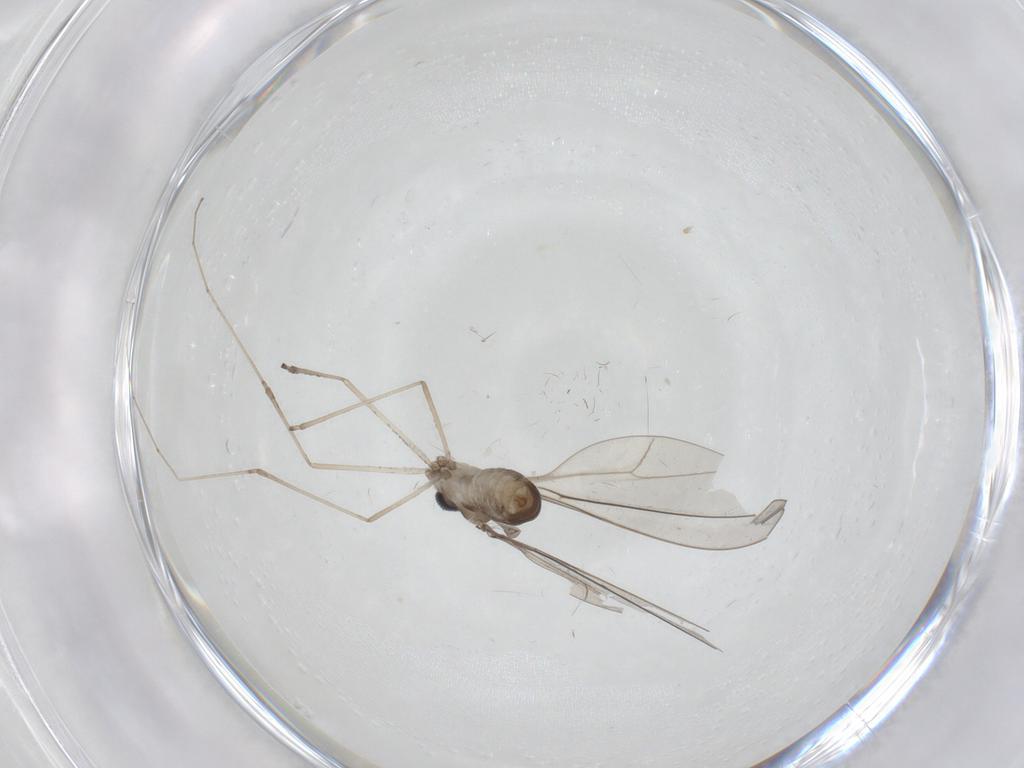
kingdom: Animalia
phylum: Arthropoda
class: Insecta
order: Diptera
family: Cecidomyiidae
